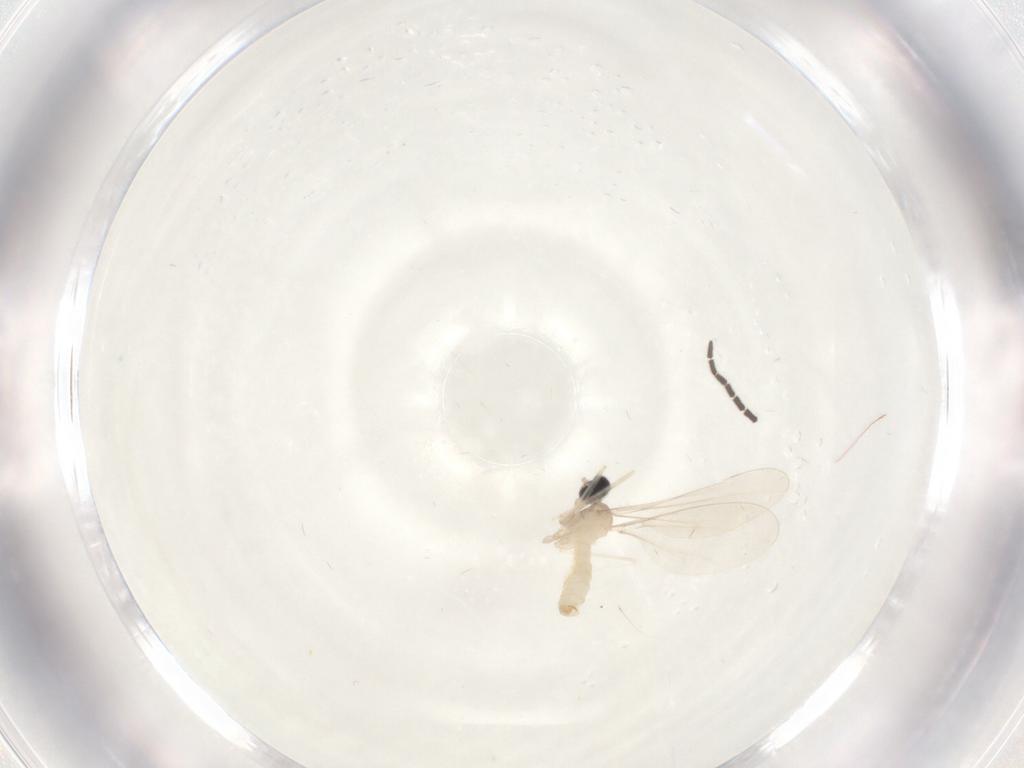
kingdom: Animalia
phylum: Arthropoda
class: Insecta
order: Diptera
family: Cecidomyiidae
